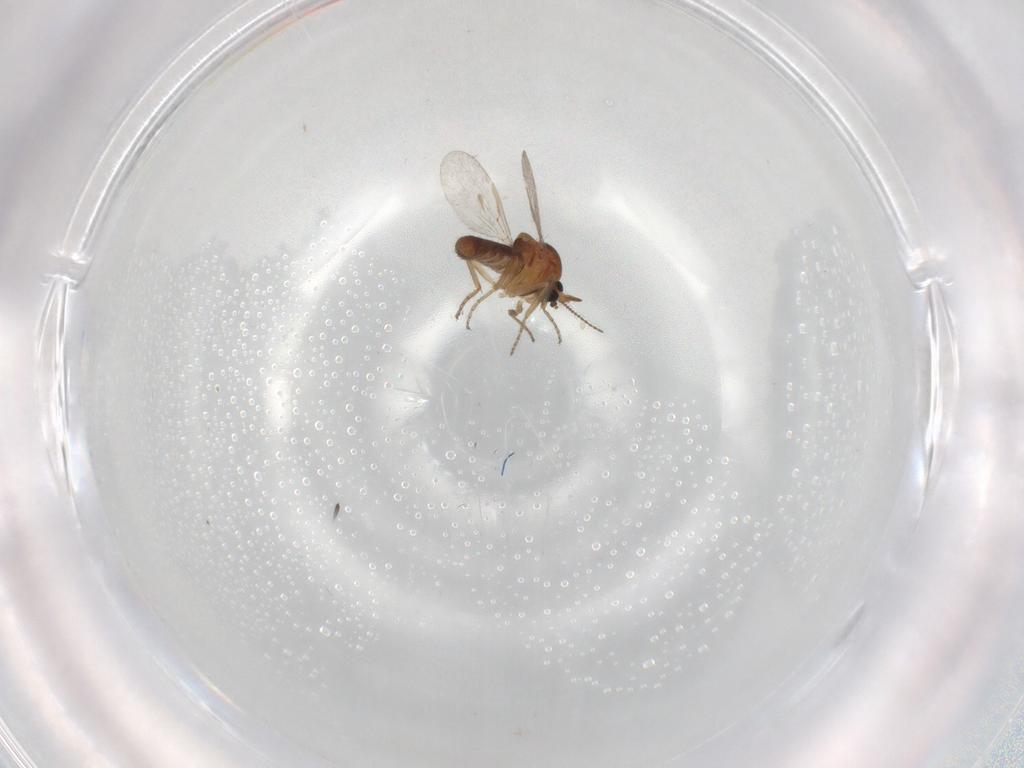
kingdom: Animalia
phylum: Arthropoda
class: Insecta
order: Diptera
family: Ceratopogonidae
